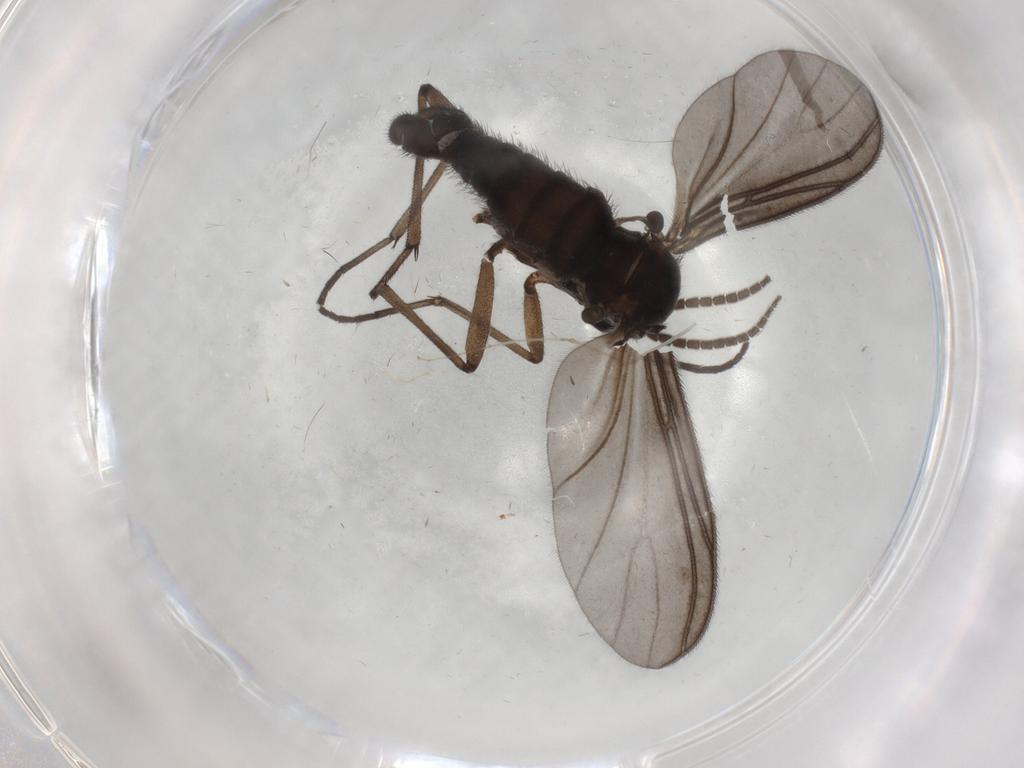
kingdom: Animalia
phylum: Arthropoda
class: Insecta
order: Diptera
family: Sciaridae
